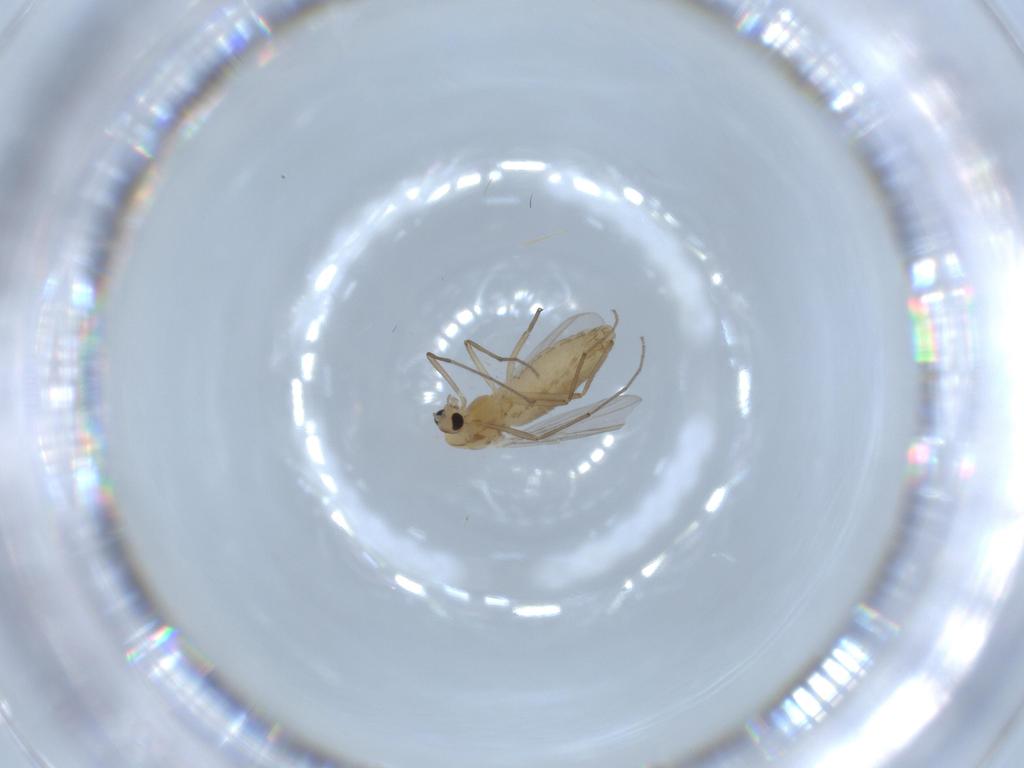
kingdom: Animalia
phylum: Arthropoda
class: Insecta
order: Diptera
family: Chironomidae
